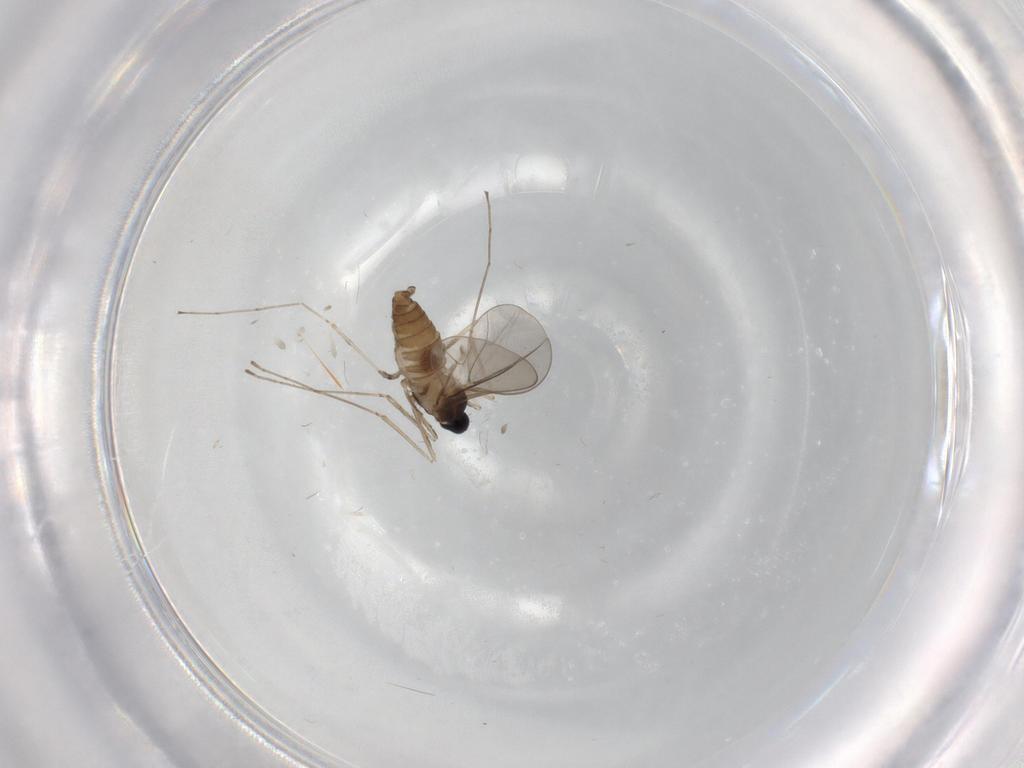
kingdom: Animalia
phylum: Arthropoda
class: Insecta
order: Diptera
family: Cecidomyiidae
